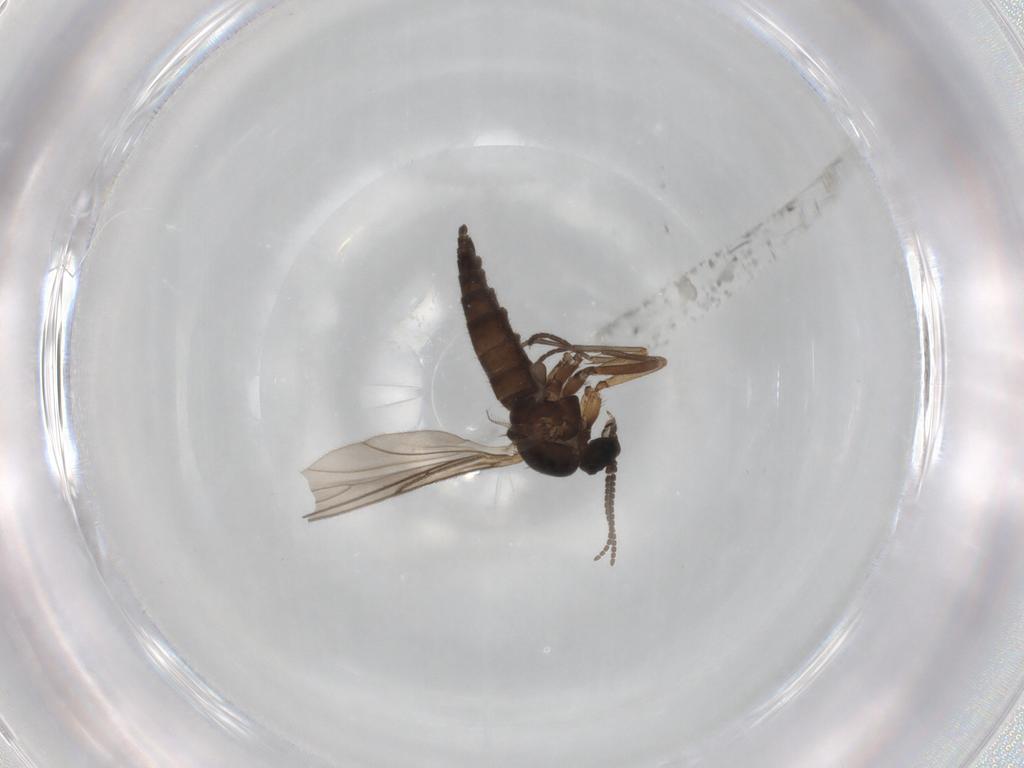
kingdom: Animalia
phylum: Arthropoda
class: Insecta
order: Diptera
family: Sciaridae
